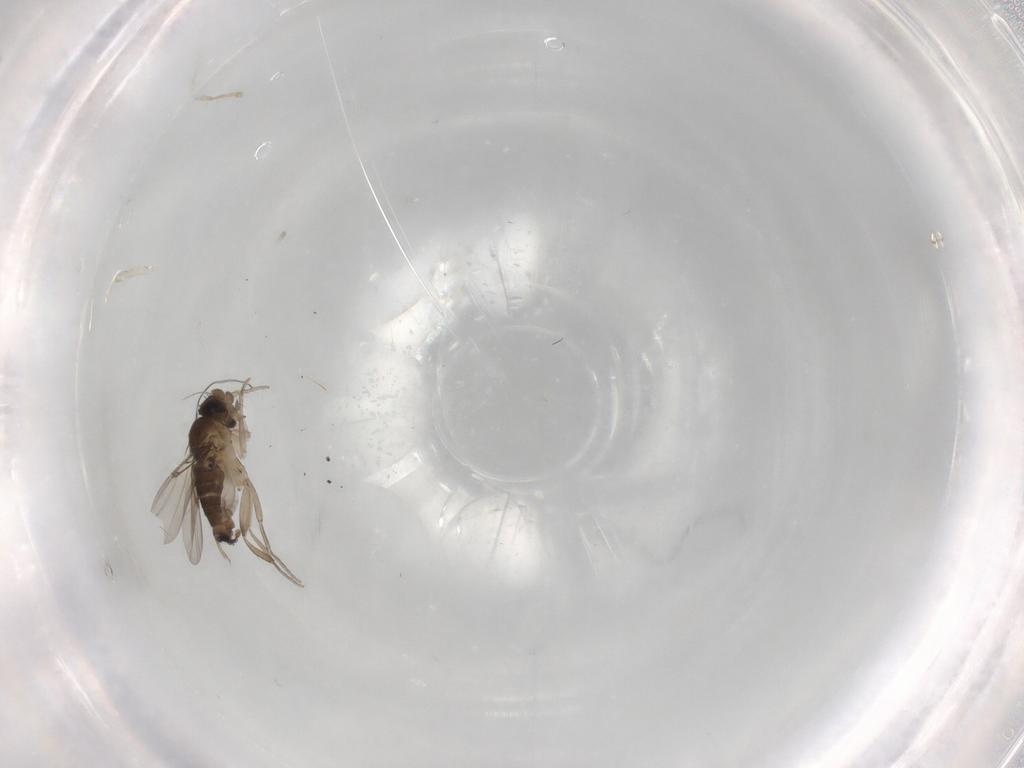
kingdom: Animalia
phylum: Arthropoda
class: Insecta
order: Diptera
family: Phoridae
